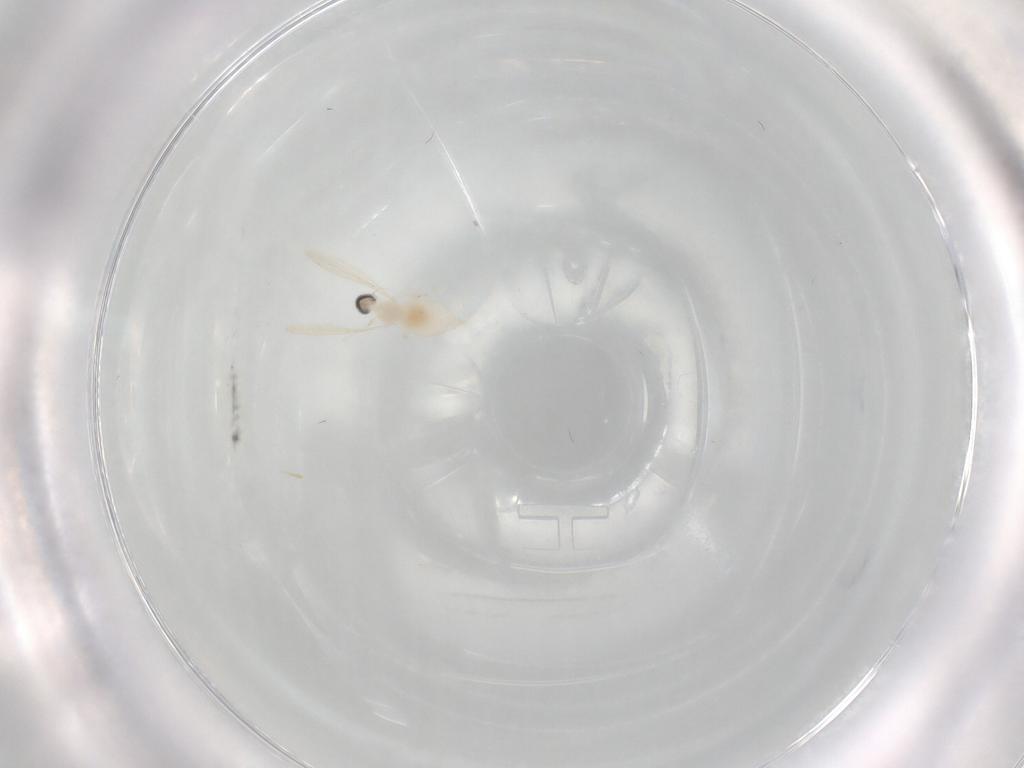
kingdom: Animalia
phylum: Arthropoda
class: Insecta
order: Diptera
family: Cecidomyiidae
